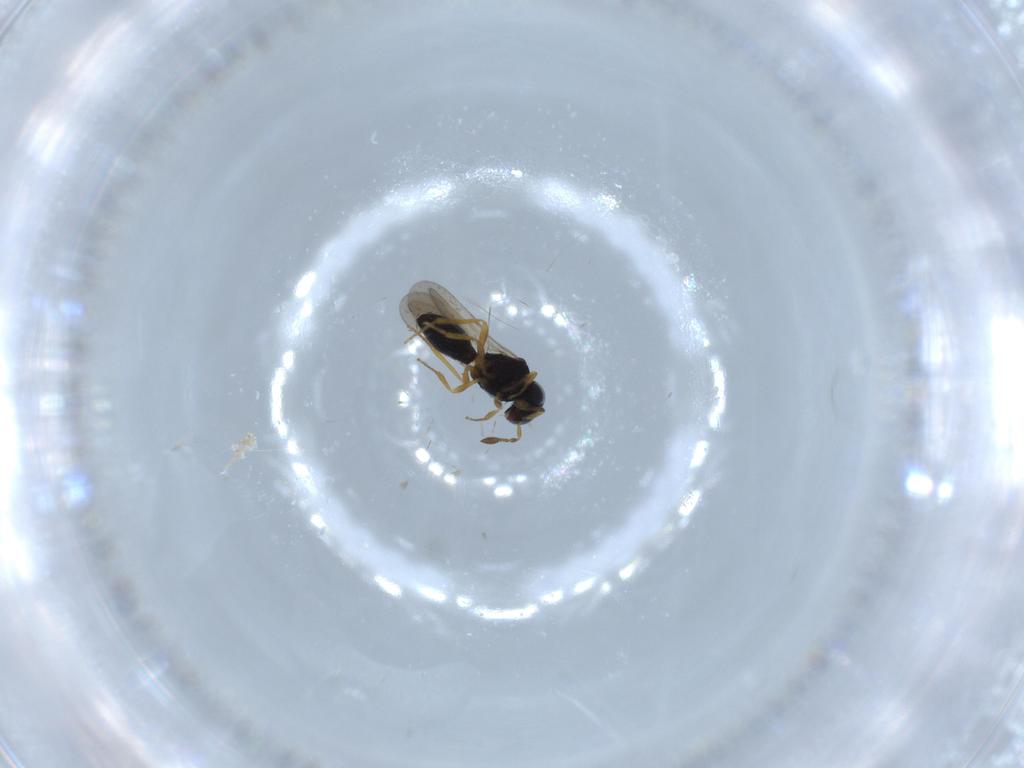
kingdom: Animalia
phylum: Arthropoda
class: Insecta
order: Hymenoptera
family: Scelionidae
